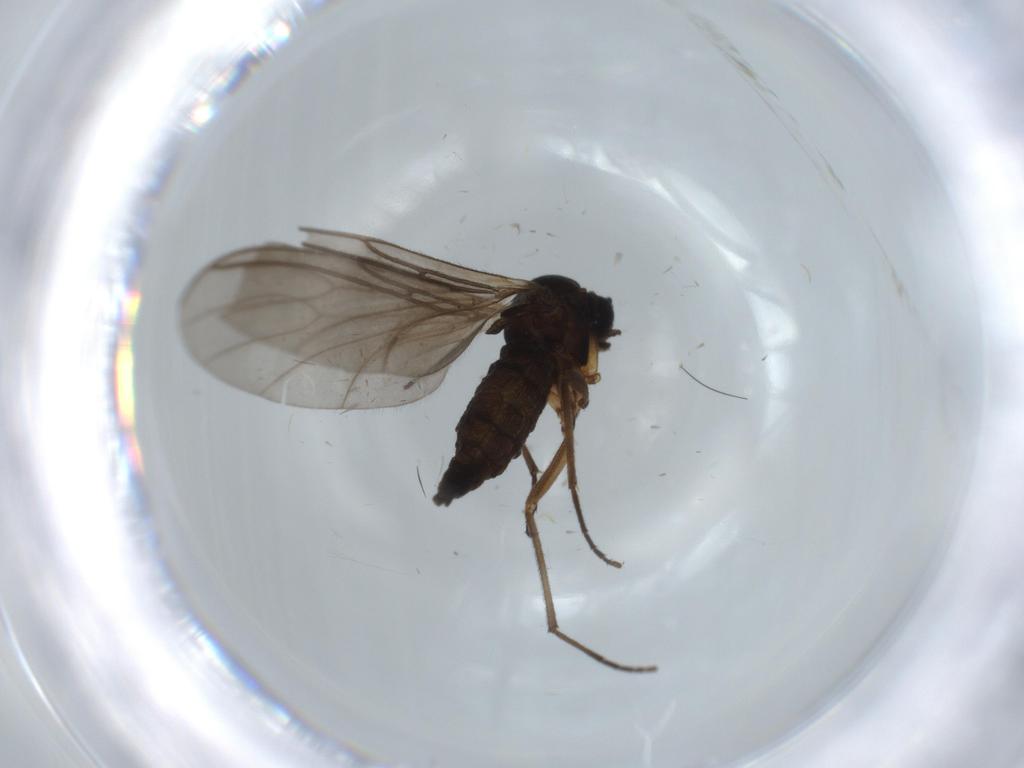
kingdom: Animalia
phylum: Arthropoda
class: Insecta
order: Diptera
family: Sciaridae
